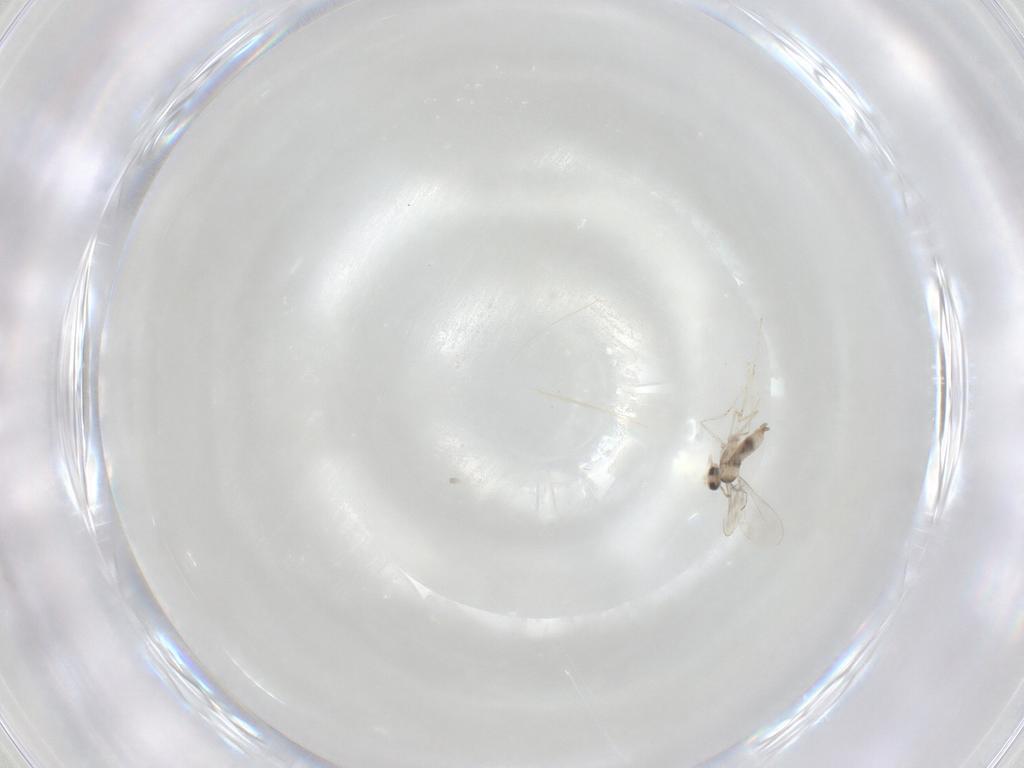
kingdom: Animalia
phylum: Arthropoda
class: Insecta
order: Diptera
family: Cecidomyiidae
